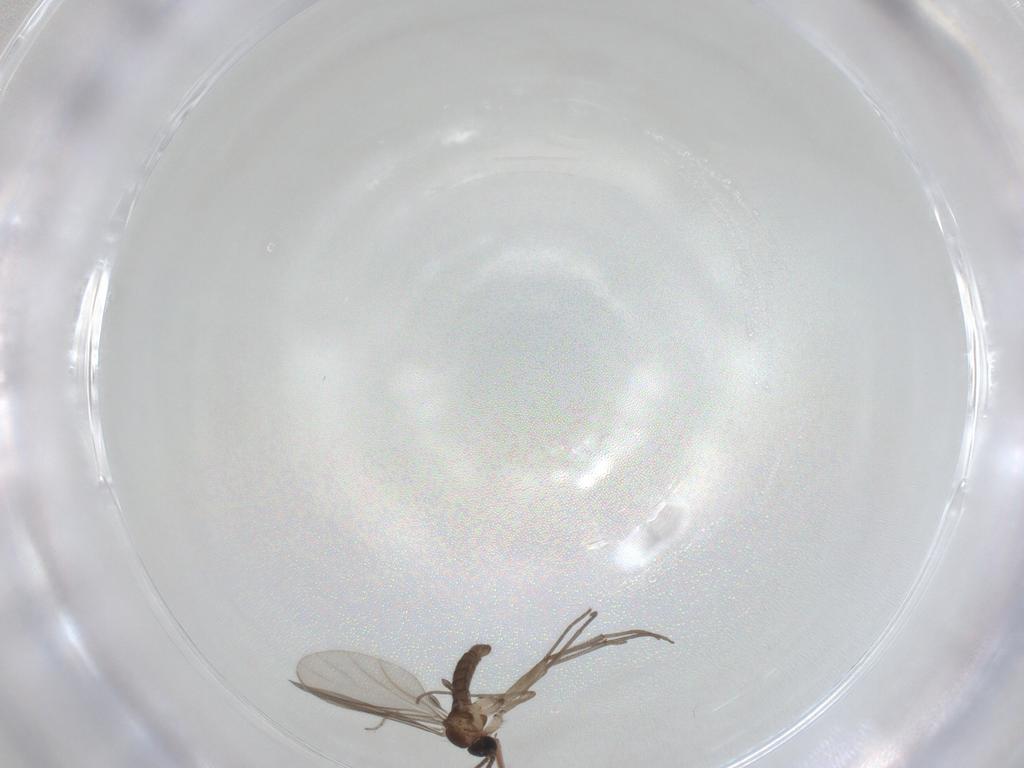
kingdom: Animalia
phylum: Arthropoda
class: Insecta
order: Diptera
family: Sciaridae
